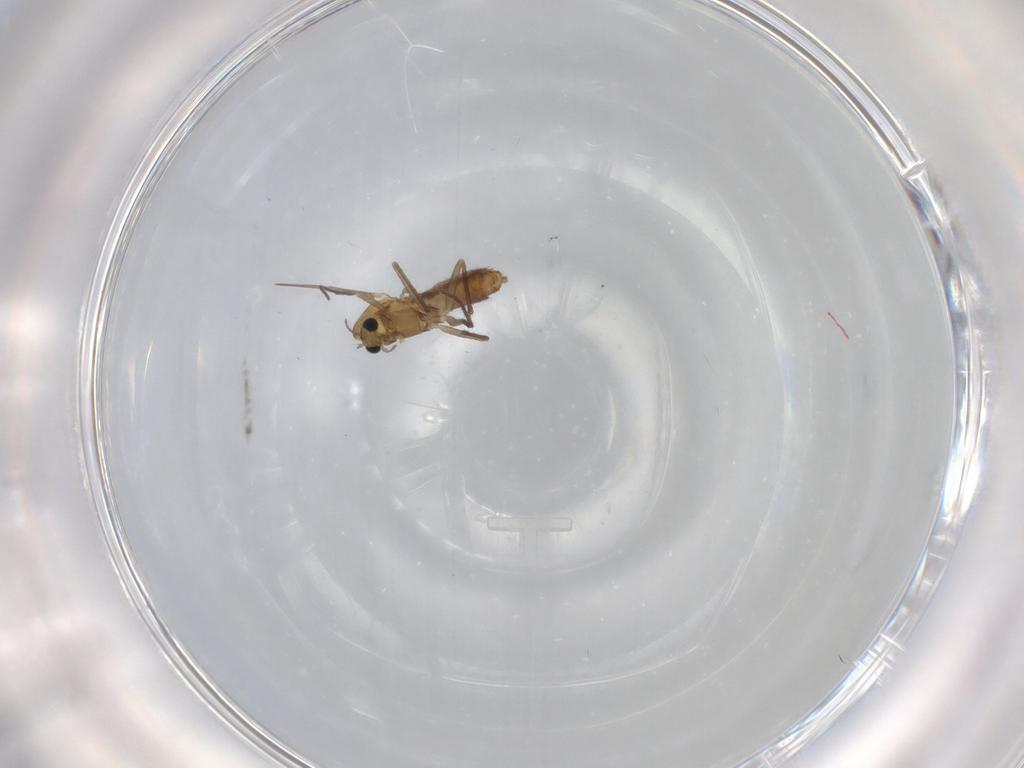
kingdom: Animalia
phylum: Arthropoda
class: Insecta
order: Diptera
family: Chironomidae
